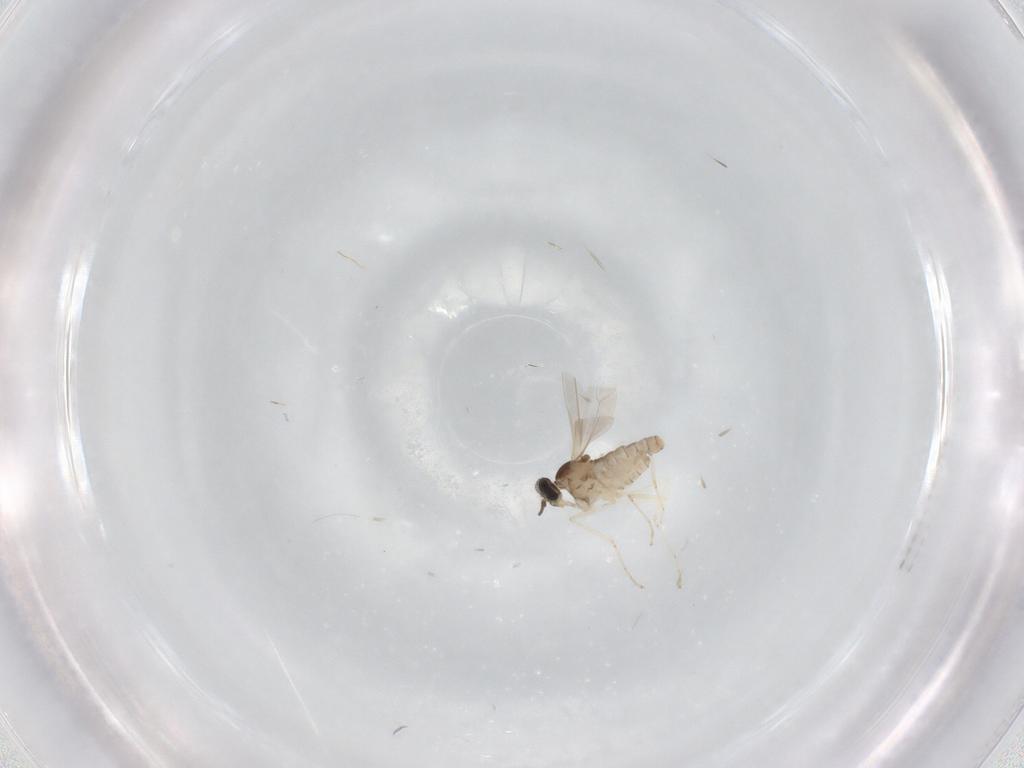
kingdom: Animalia
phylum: Arthropoda
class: Insecta
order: Diptera
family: Cecidomyiidae
